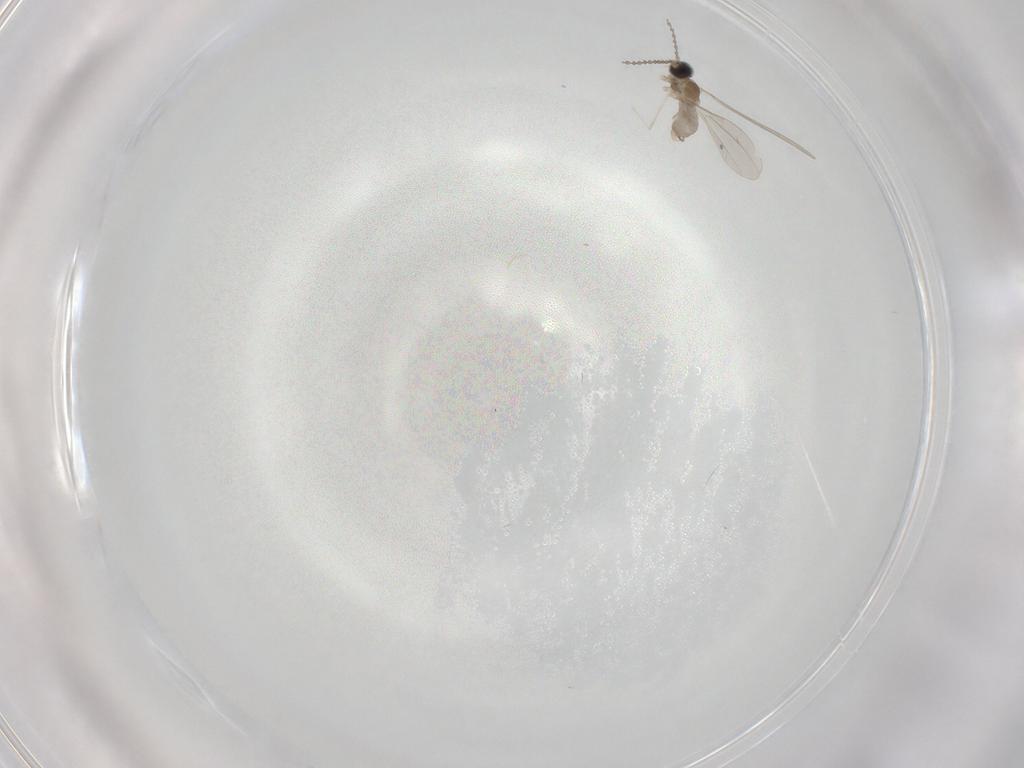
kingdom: Animalia
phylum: Arthropoda
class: Insecta
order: Diptera
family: Cecidomyiidae
